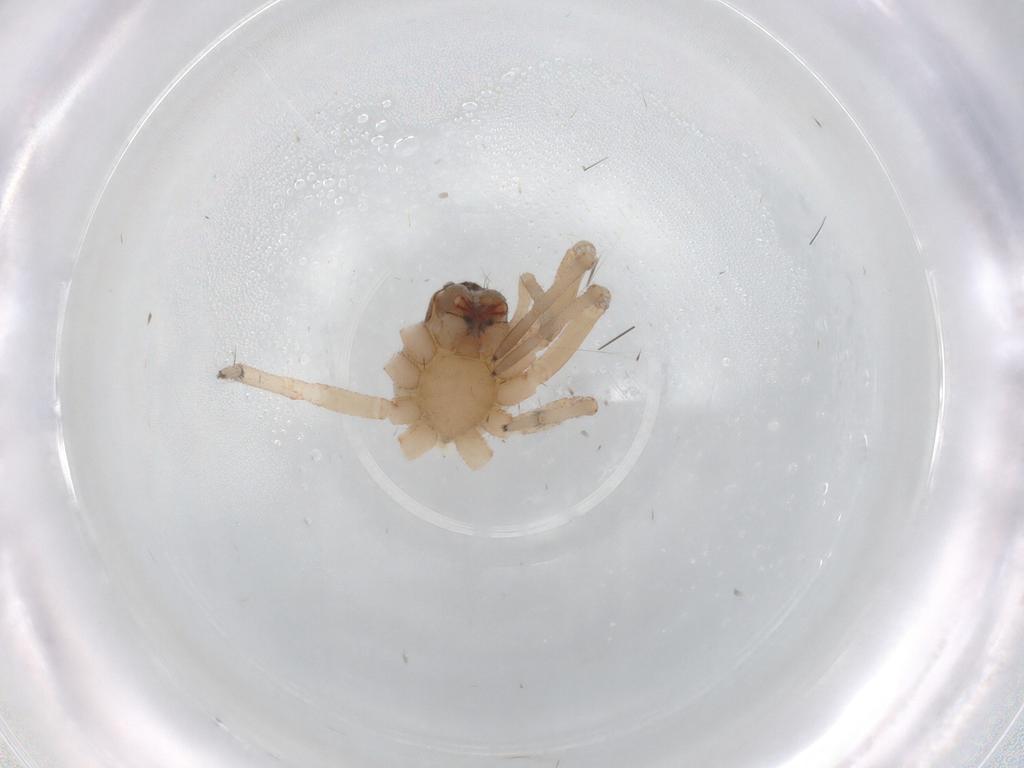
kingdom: Animalia
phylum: Arthropoda
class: Arachnida
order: Araneae
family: Trachelidae
